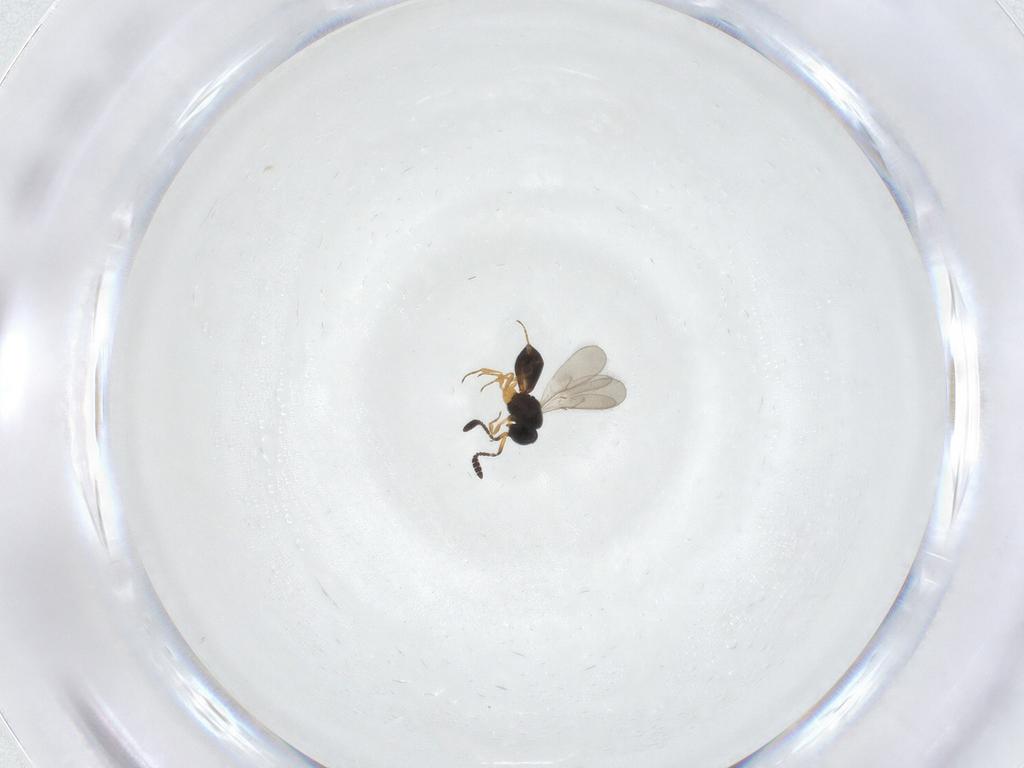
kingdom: Animalia
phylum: Arthropoda
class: Insecta
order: Hymenoptera
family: Scelionidae
